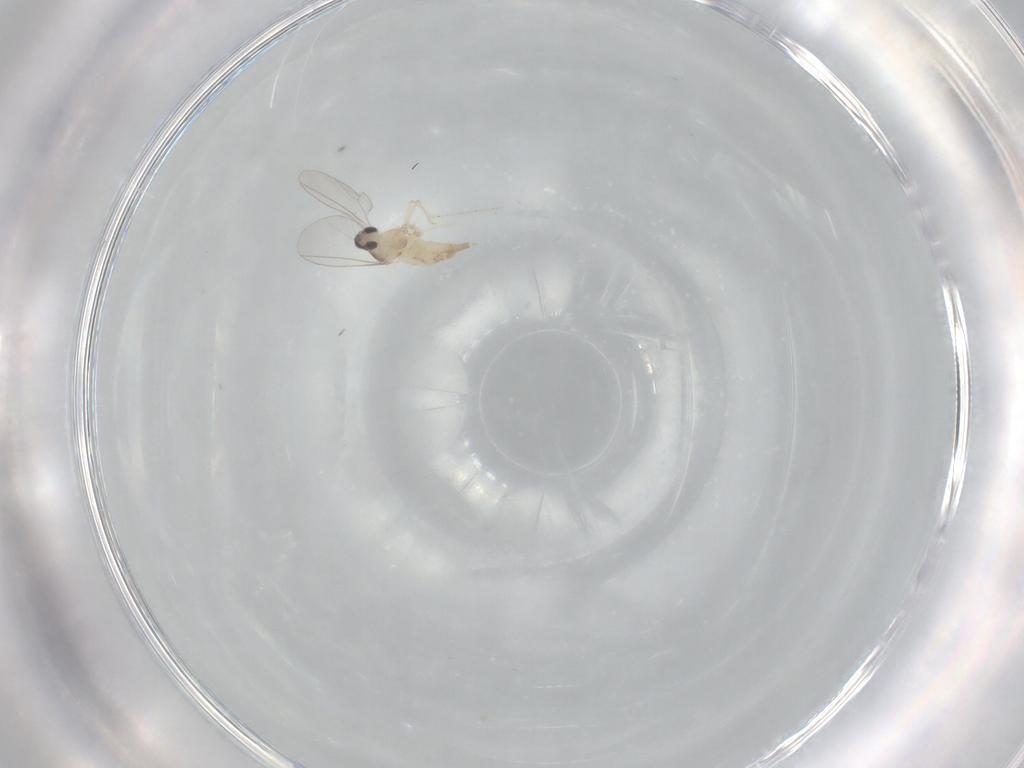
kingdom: Animalia
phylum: Arthropoda
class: Insecta
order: Diptera
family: Cecidomyiidae
